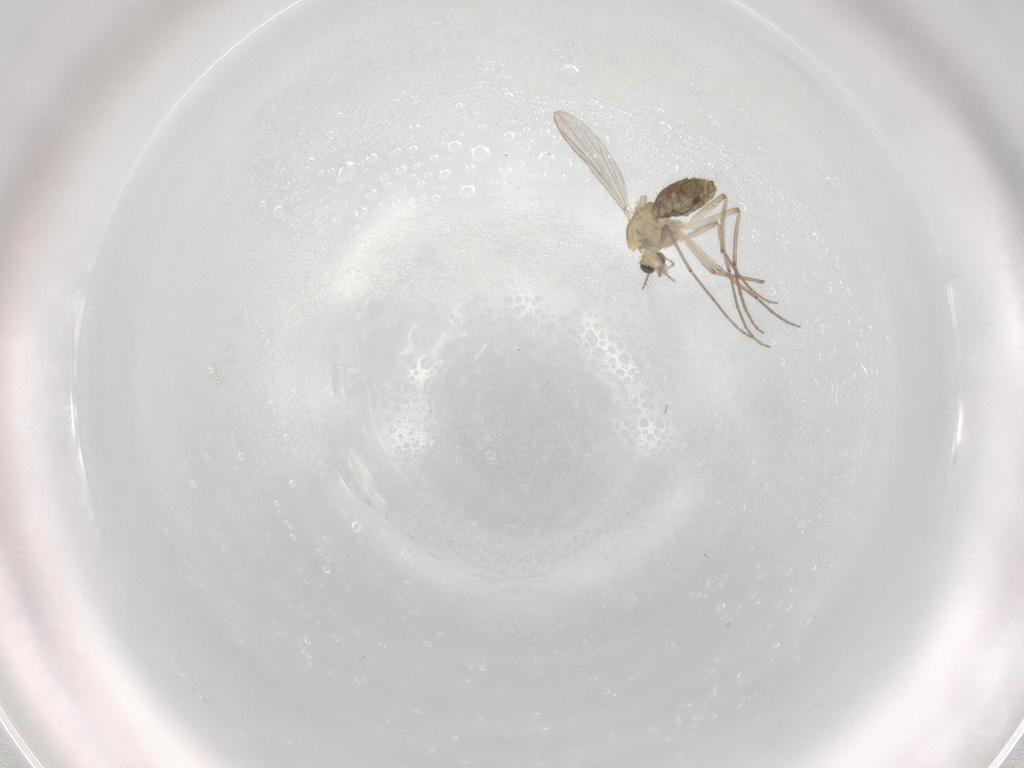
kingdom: Animalia
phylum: Arthropoda
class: Insecta
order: Diptera
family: Chironomidae
